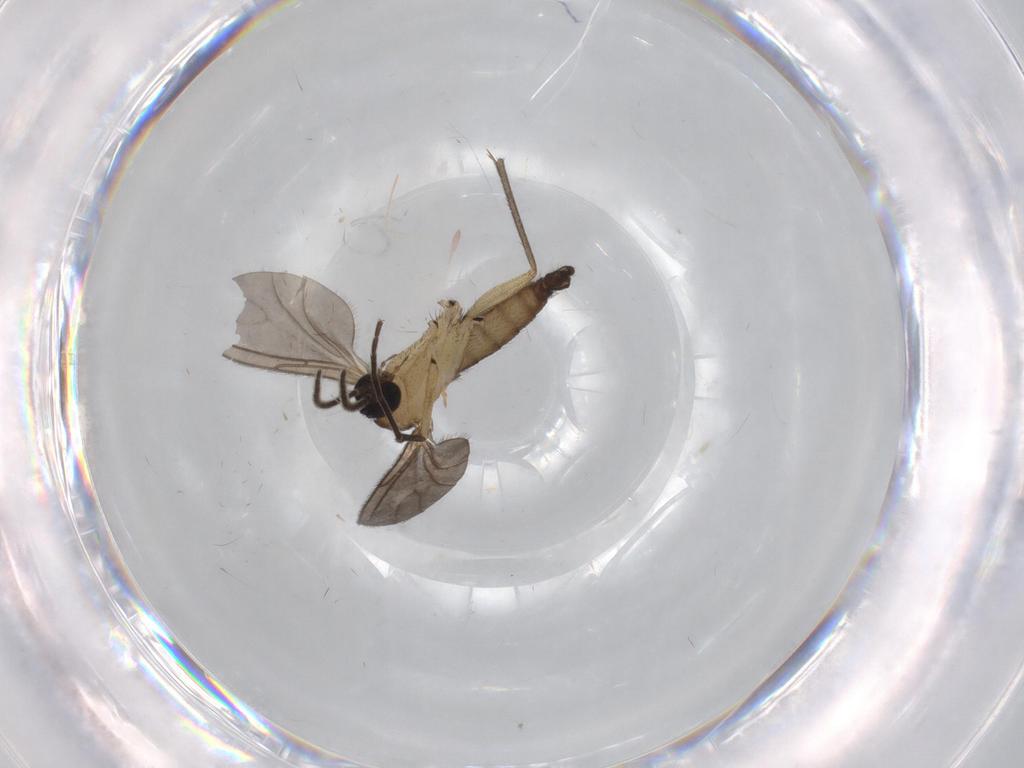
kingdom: Animalia
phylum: Arthropoda
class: Insecta
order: Diptera
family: Sciaridae
